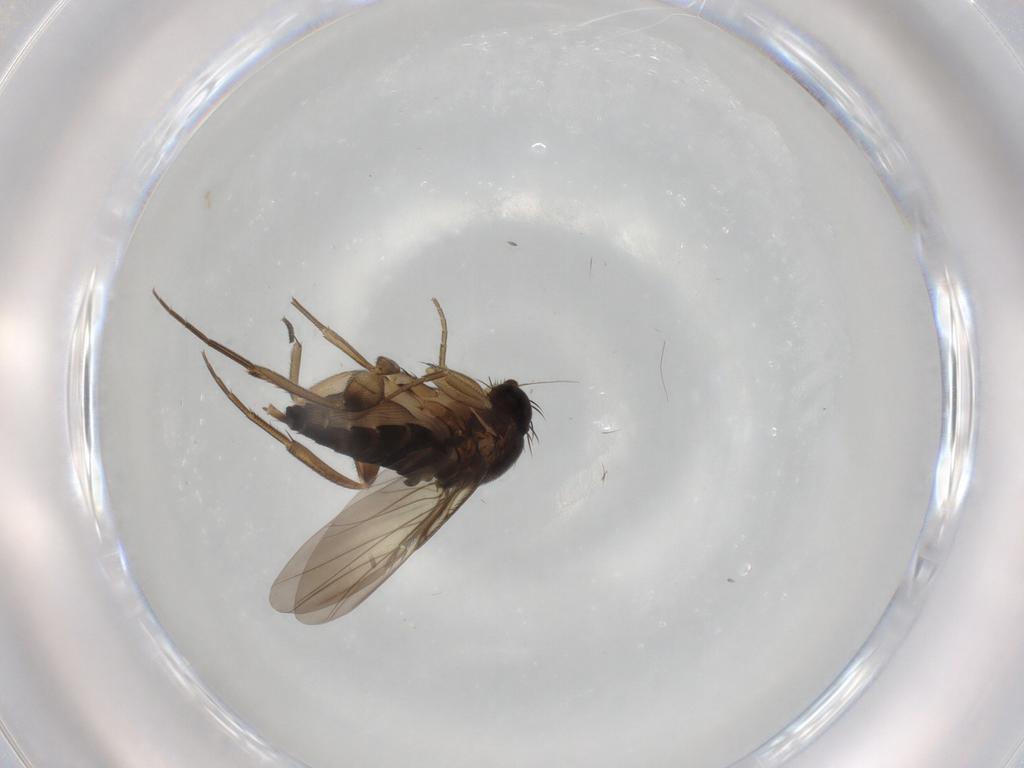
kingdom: Animalia
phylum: Arthropoda
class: Insecta
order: Diptera
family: Phoridae
